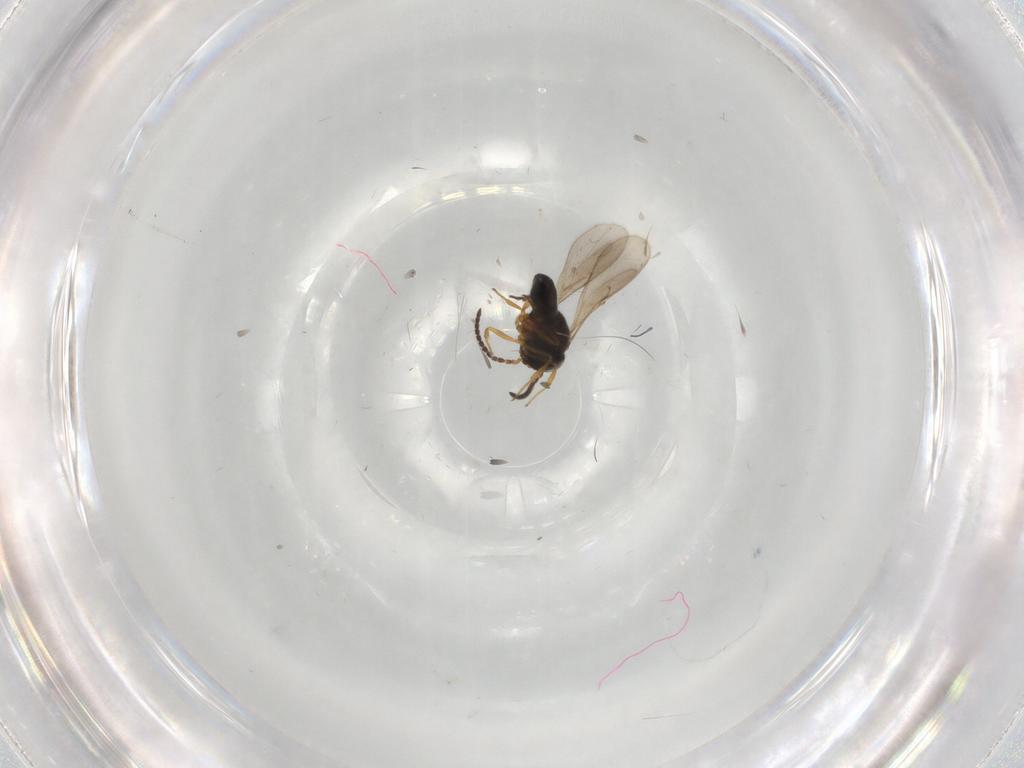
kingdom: Animalia
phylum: Arthropoda
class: Insecta
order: Hymenoptera
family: Scelionidae
